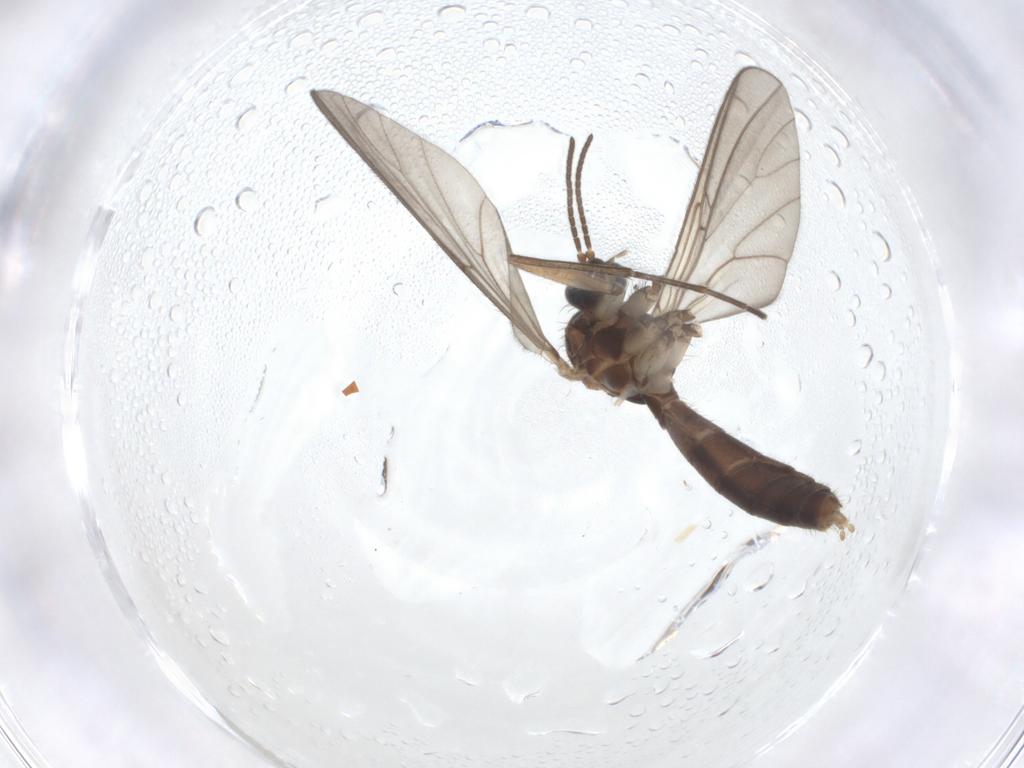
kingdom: Animalia
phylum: Arthropoda
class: Insecta
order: Diptera
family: Mycetophilidae
